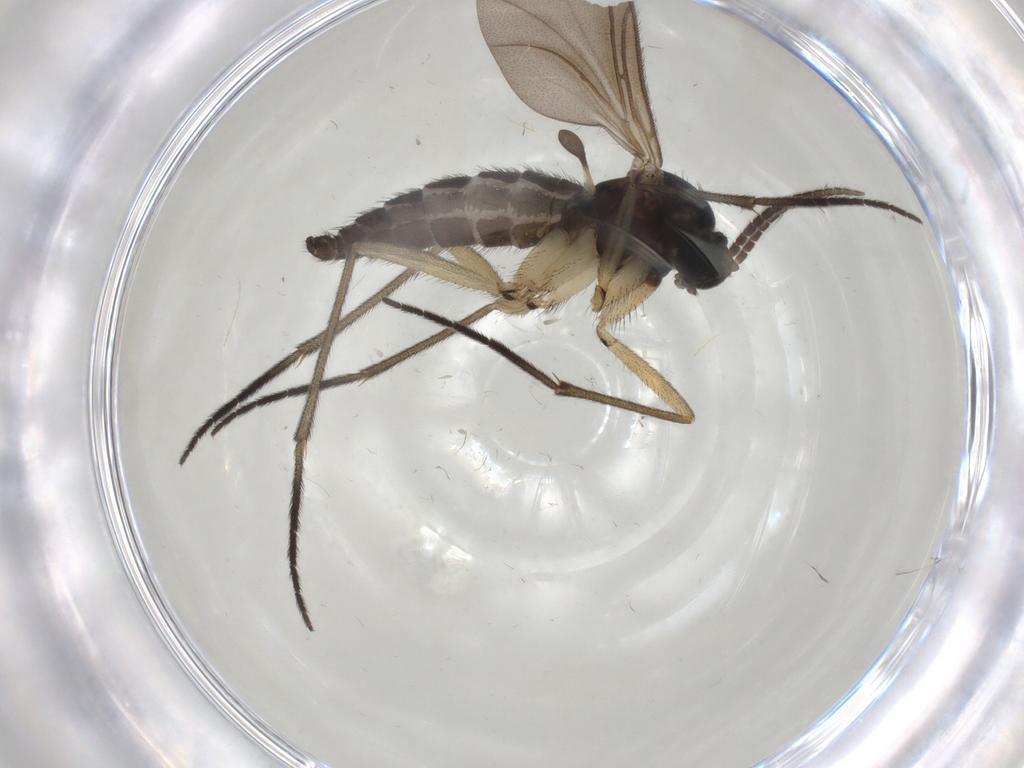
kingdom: Animalia
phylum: Arthropoda
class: Insecta
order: Diptera
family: Sciaridae
